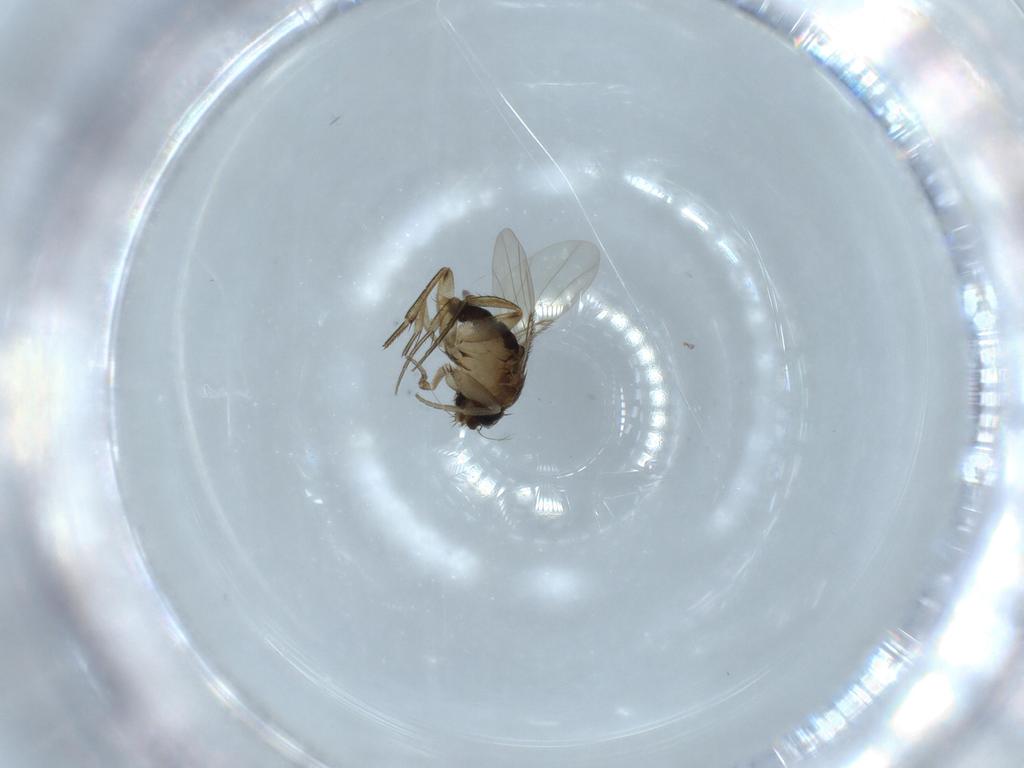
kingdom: Animalia
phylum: Arthropoda
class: Insecta
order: Diptera
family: Phoridae
